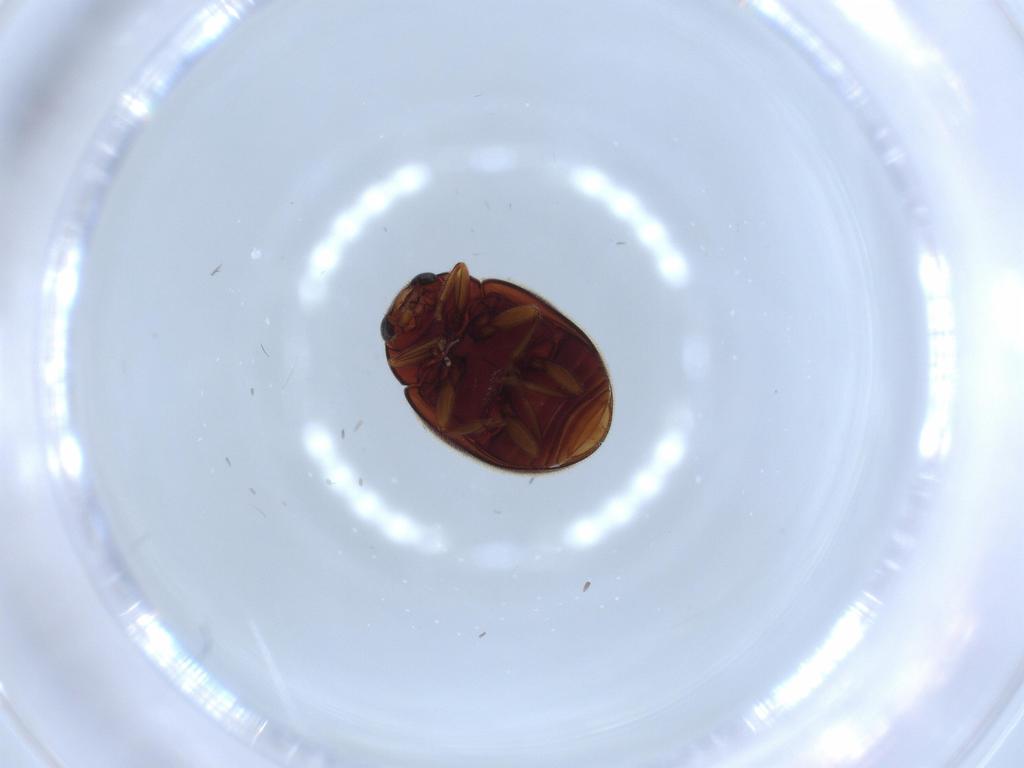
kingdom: Animalia
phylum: Arthropoda
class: Insecta
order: Coleoptera
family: Coccinellidae
